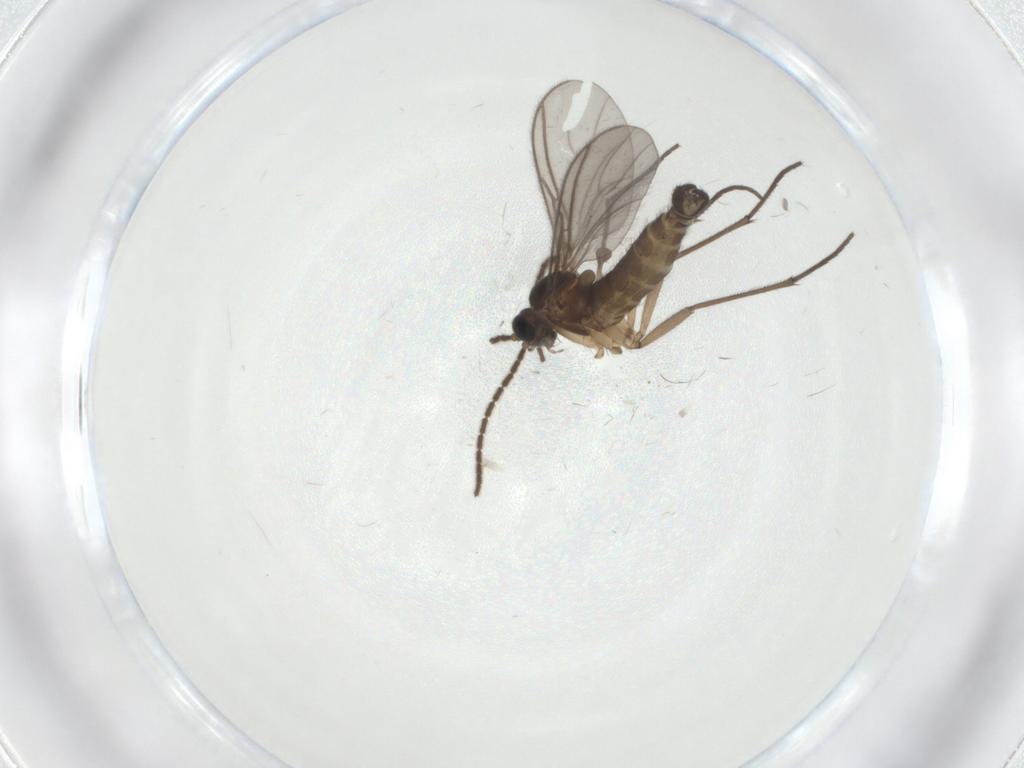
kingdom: Animalia
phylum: Arthropoda
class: Insecta
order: Diptera
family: Sciaridae
